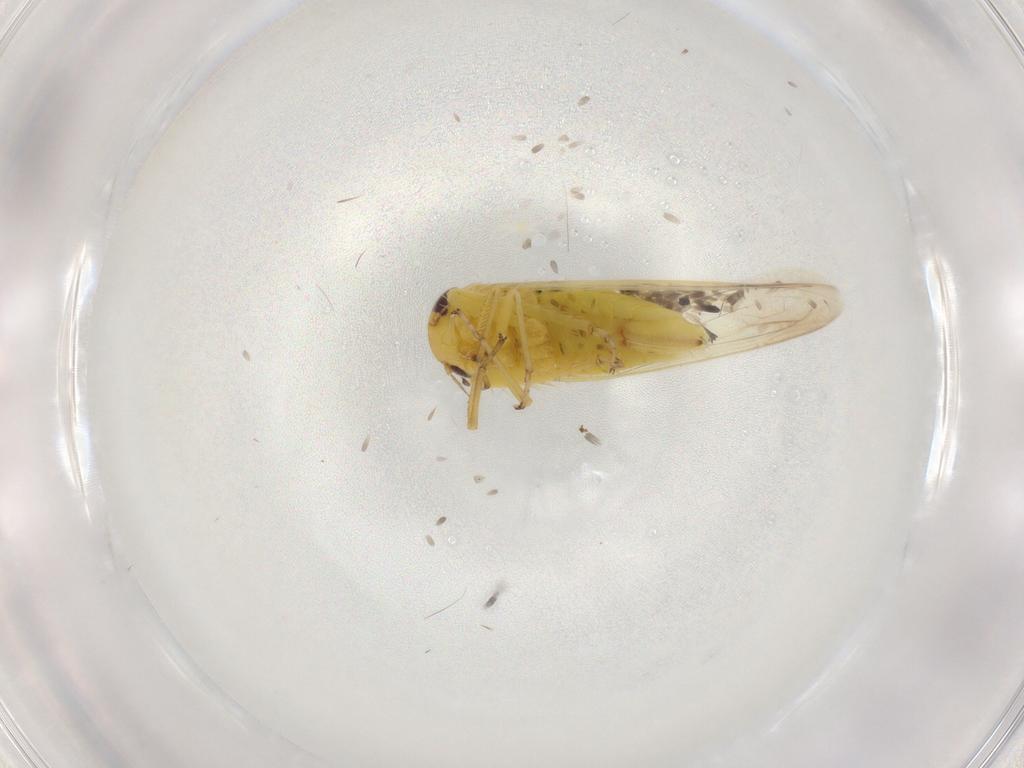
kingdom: Animalia
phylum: Arthropoda
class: Insecta
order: Hemiptera
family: Cicadellidae
